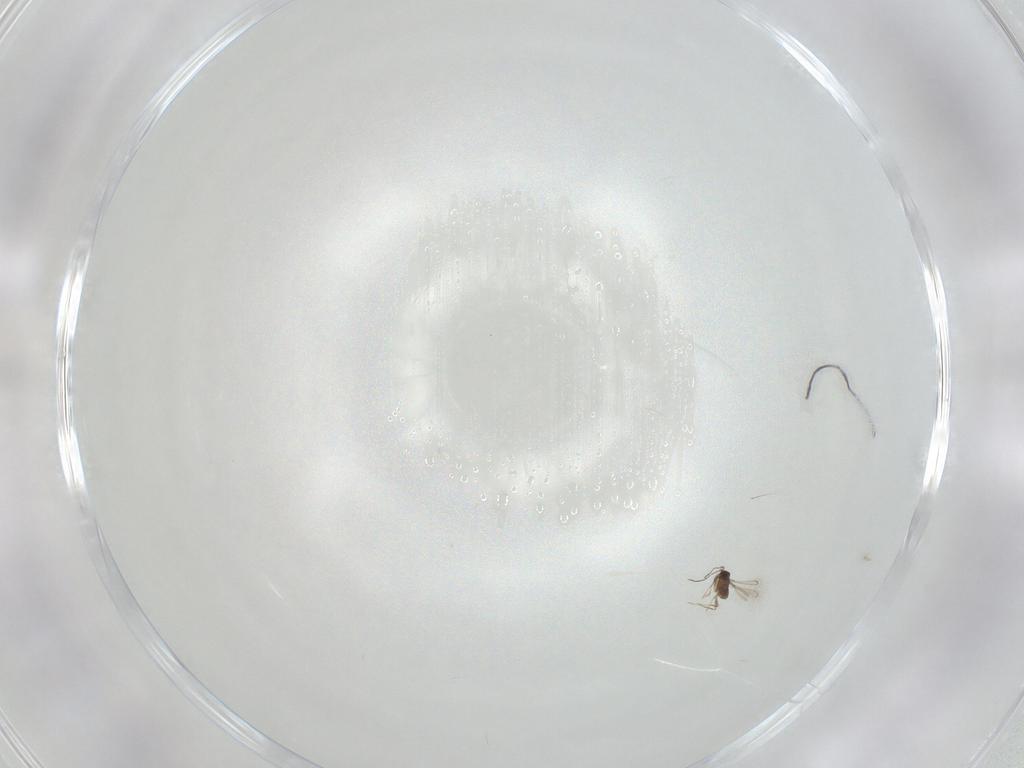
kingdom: Animalia
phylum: Arthropoda
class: Insecta
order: Hymenoptera
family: Mymaridae
